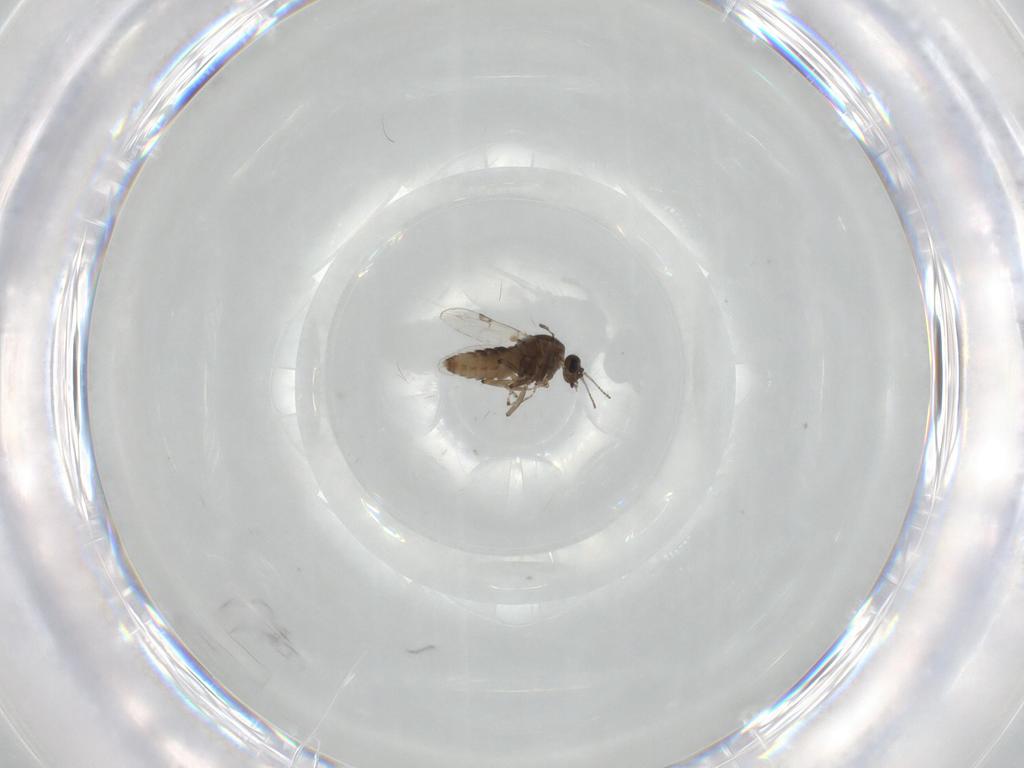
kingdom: Animalia
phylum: Arthropoda
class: Insecta
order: Diptera
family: Ceratopogonidae
